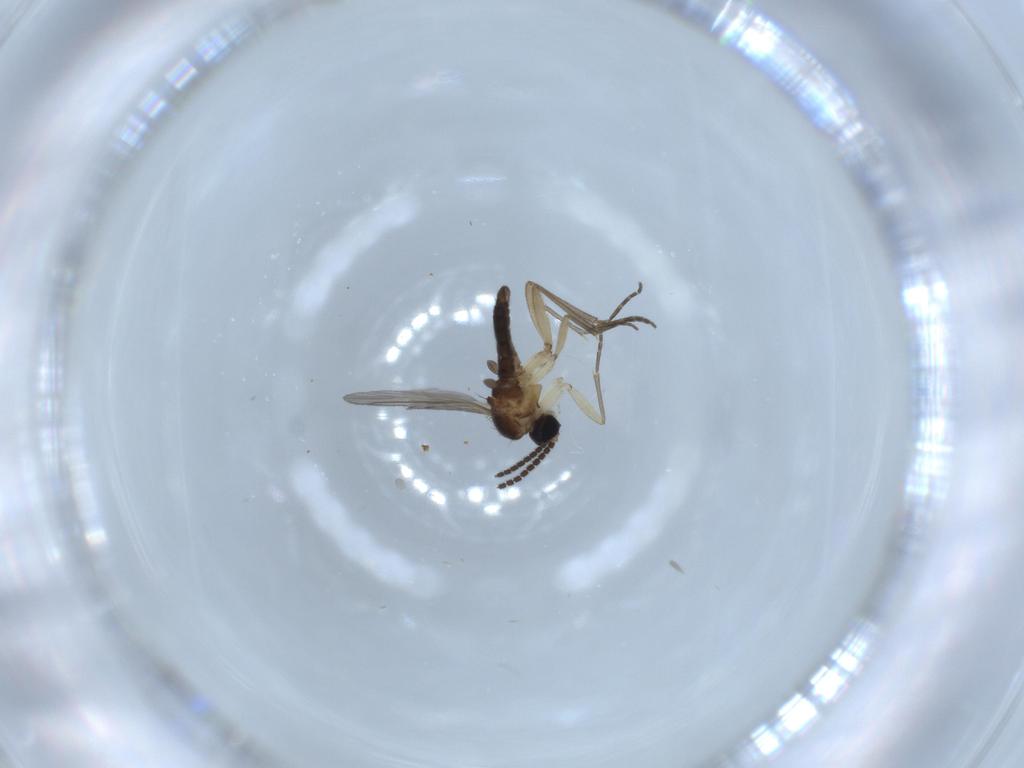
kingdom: Animalia
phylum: Arthropoda
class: Insecta
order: Diptera
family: Sciaridae
